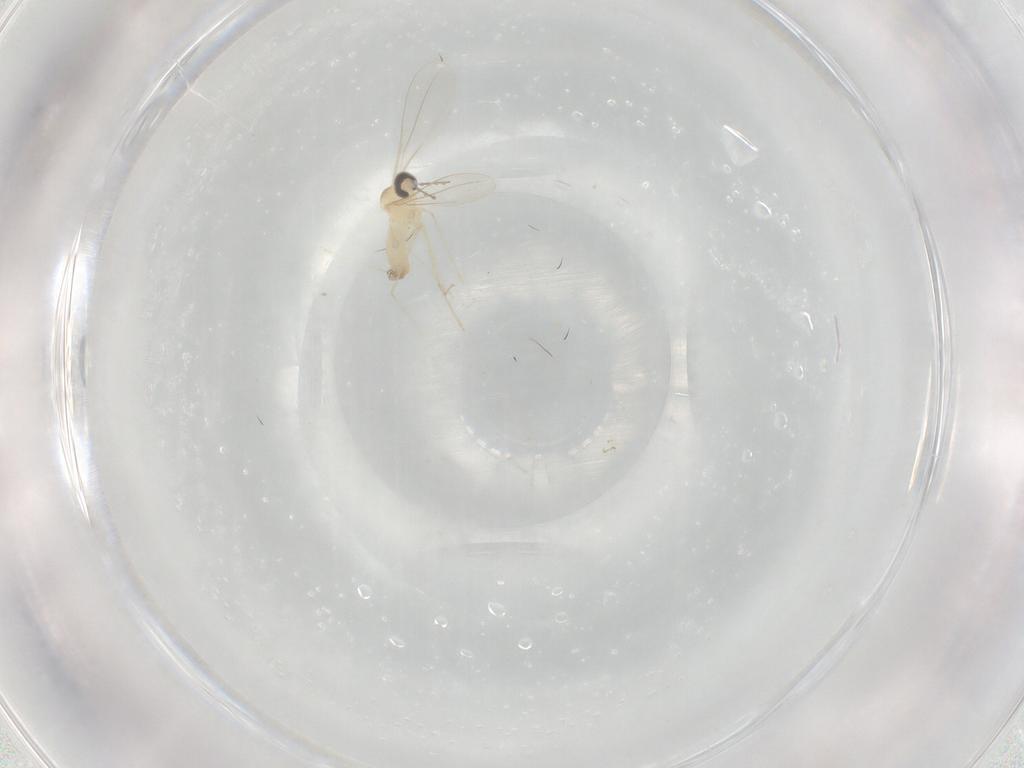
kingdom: Animalia
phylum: Arthropoda
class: Insecta
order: Diptera
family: Cecidomyiidae
